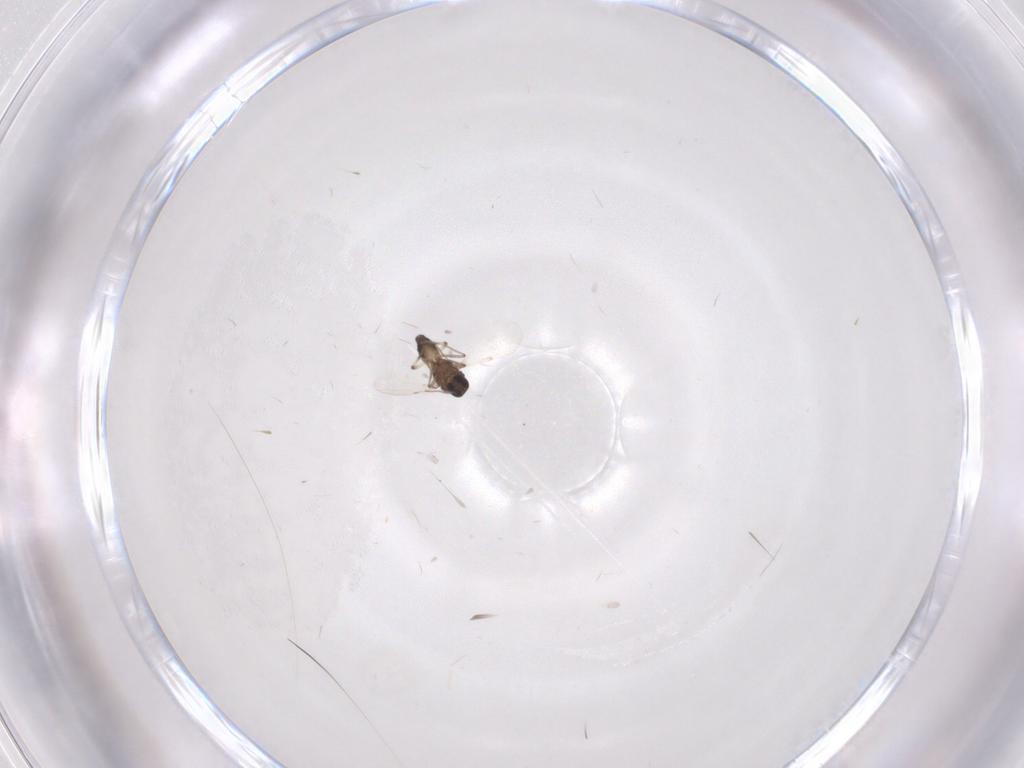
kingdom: Animalia
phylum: Arthropoda
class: Insecta
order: Diptera
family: Ceratopogonidae
